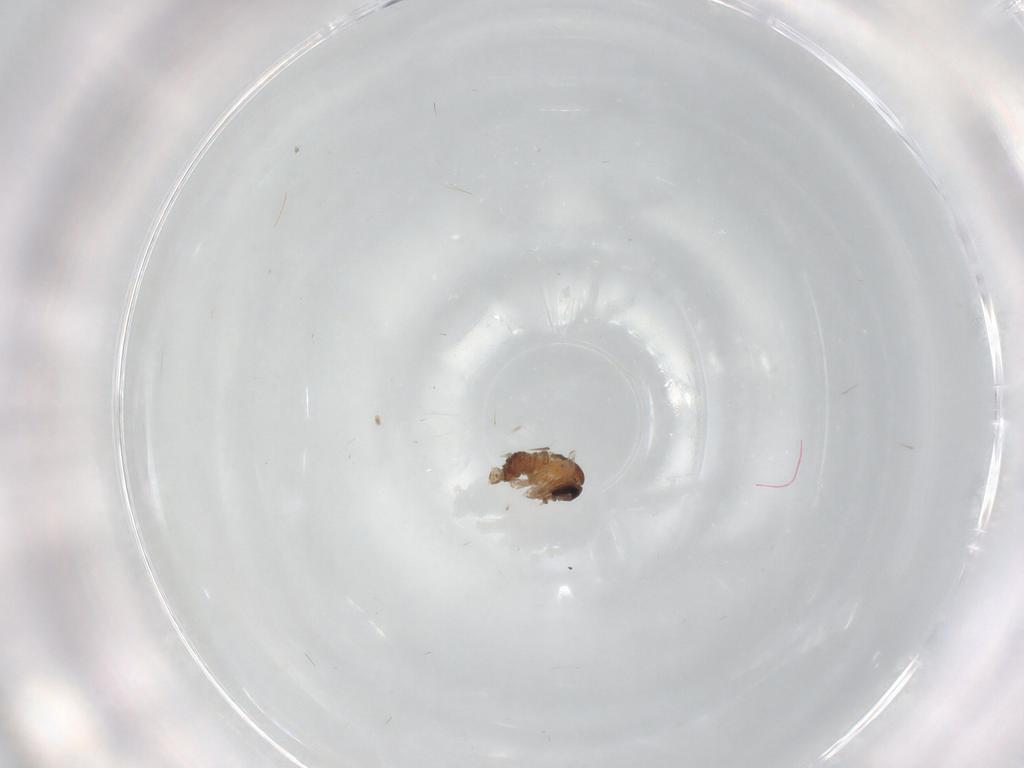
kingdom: Animalia
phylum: Arthropoda
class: Insecta
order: Diptera
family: Psychodidae
